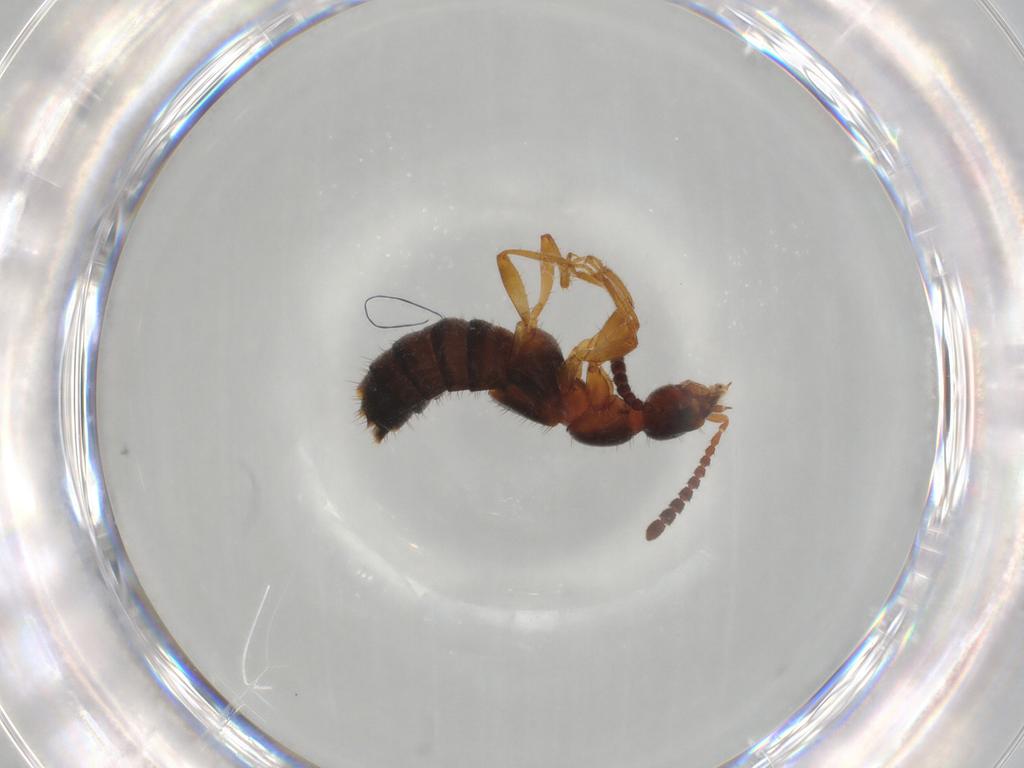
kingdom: Animalia
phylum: Arthropoda
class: Insecta
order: Coleoptera
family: Staphylinidae
